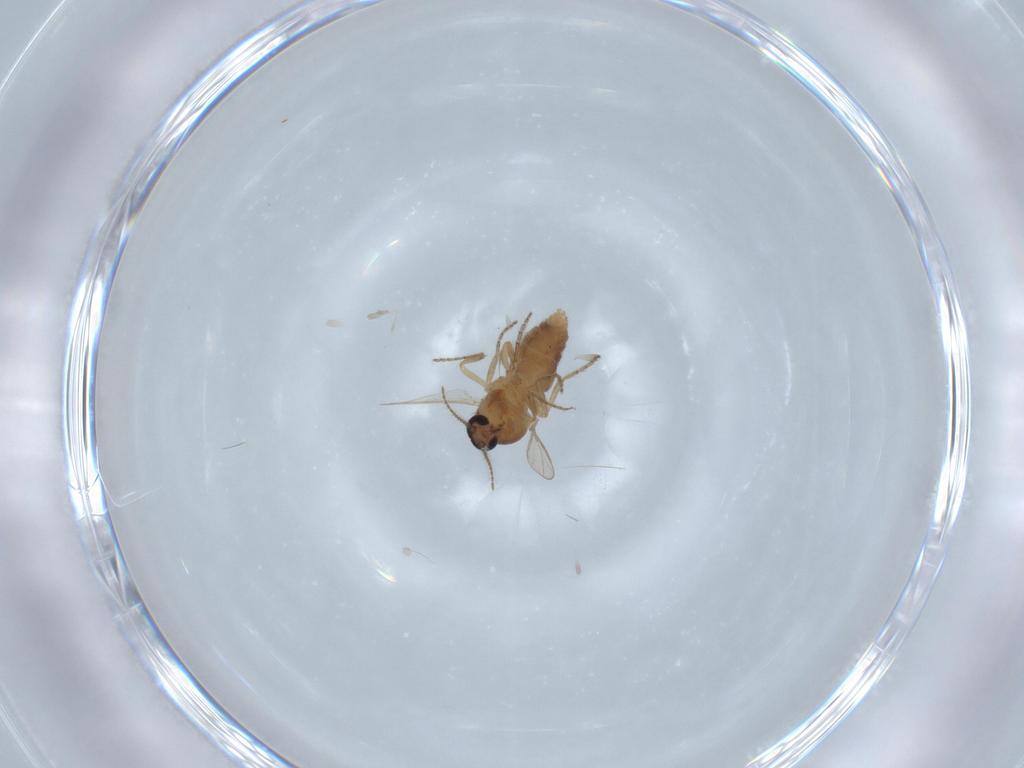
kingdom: Animalia
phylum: Arthropoda
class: Insecta
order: Diptera
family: Ceratopogonidae
